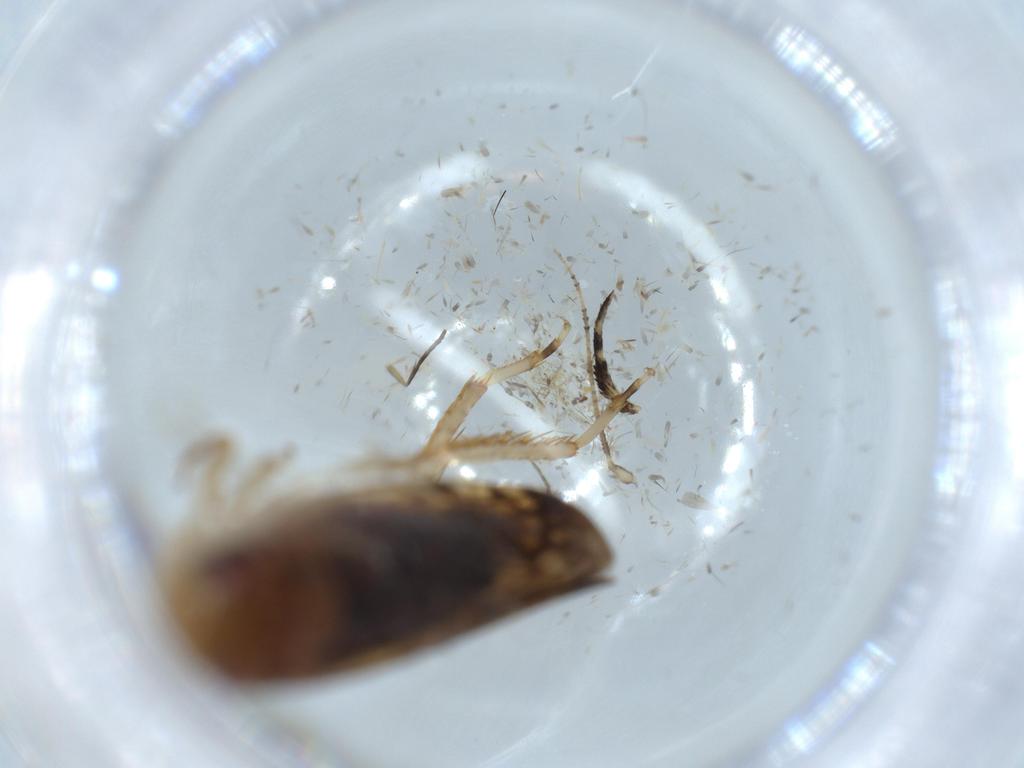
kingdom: Animalia
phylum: Arthropoda
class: Insecta
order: Hemiptera
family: Cicadellidae
